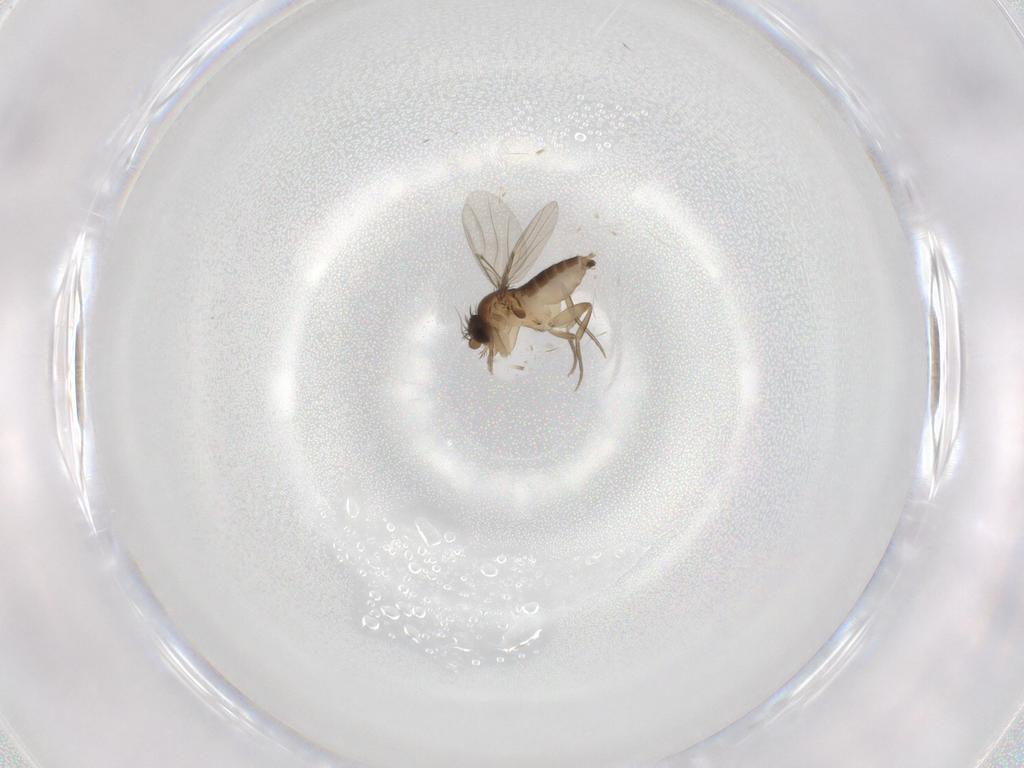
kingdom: Animalia
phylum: Arthropoda
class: Insecta
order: Diptera
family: Phoridae
